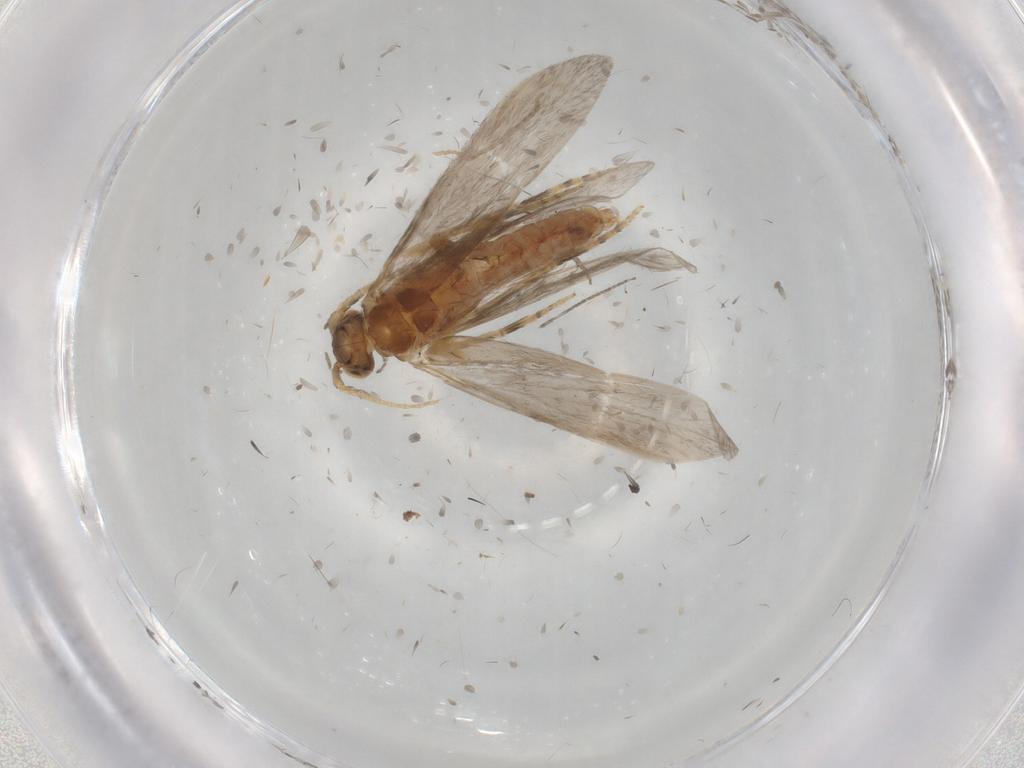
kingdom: Animalia
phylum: Arthropoda
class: Insecta
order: Trichoptera
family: Glossosomatidae
